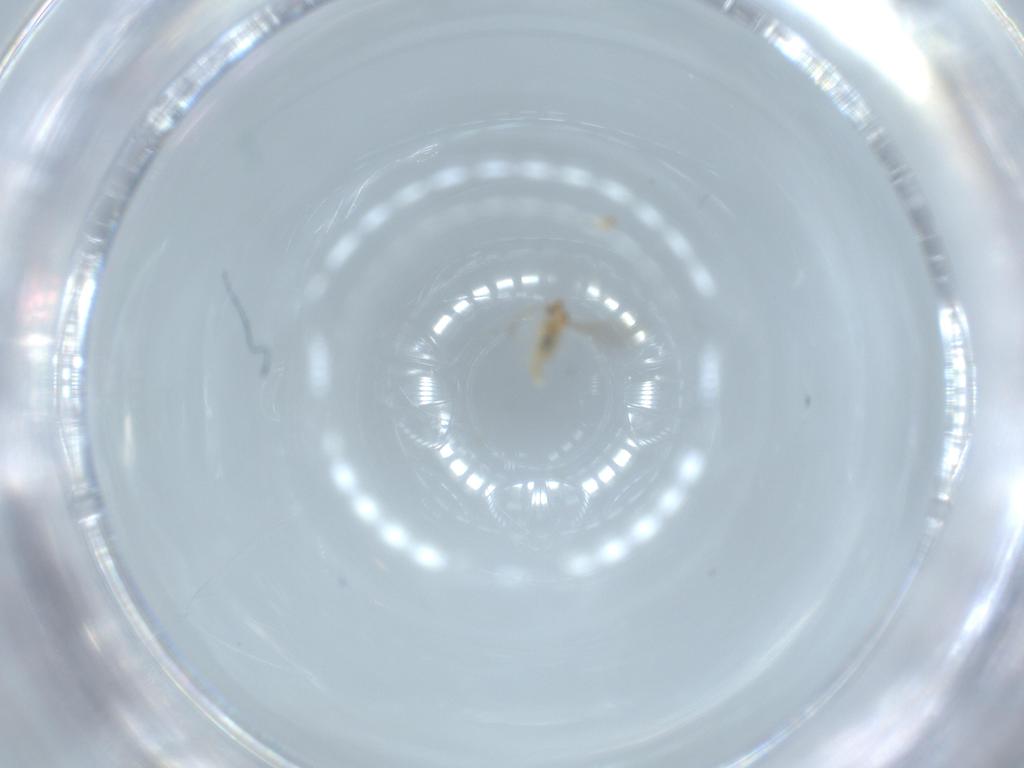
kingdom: Animalia
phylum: Arthropoda
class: Insecta
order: Diptera
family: Cecidomyiidae
